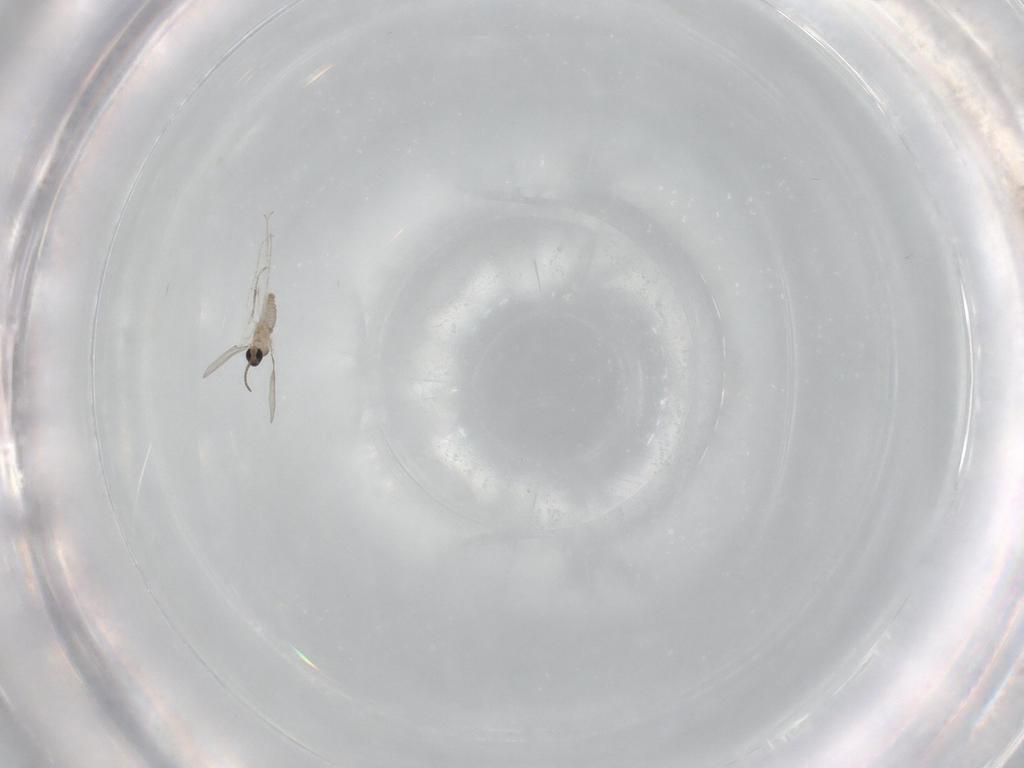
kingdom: Animalia
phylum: Arthropoda
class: Insecta
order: Diptera
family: Cecidomyiidae
